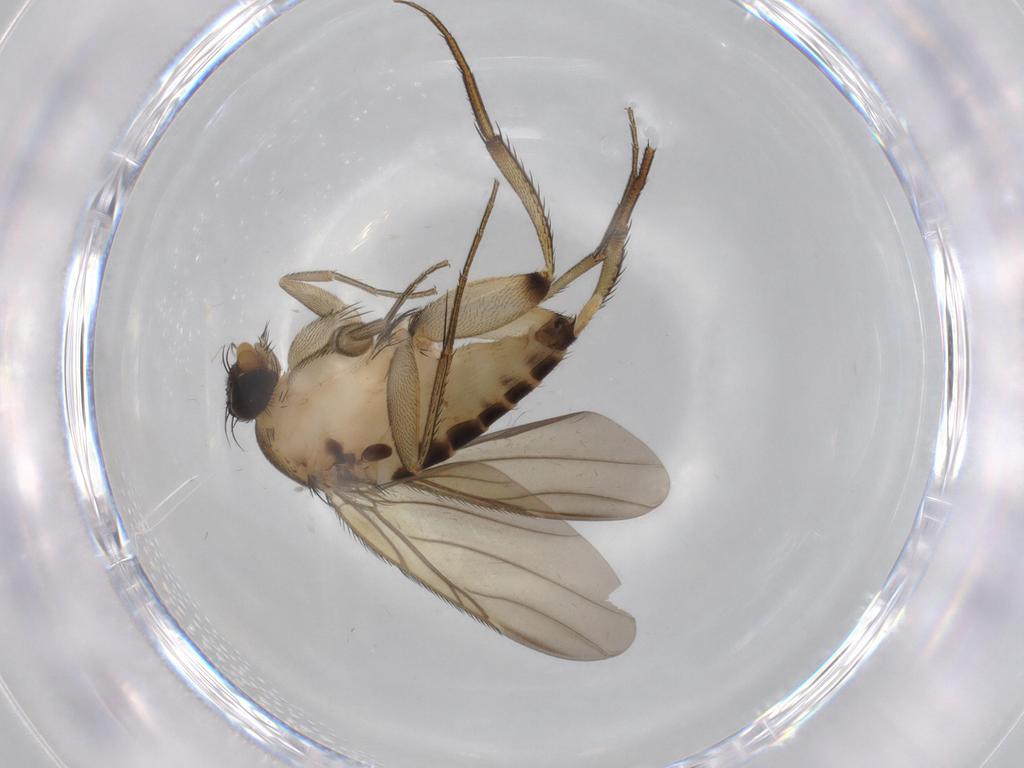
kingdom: Animalia
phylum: Arthropoda
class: Insecta
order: Diptera
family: Chironomidae
